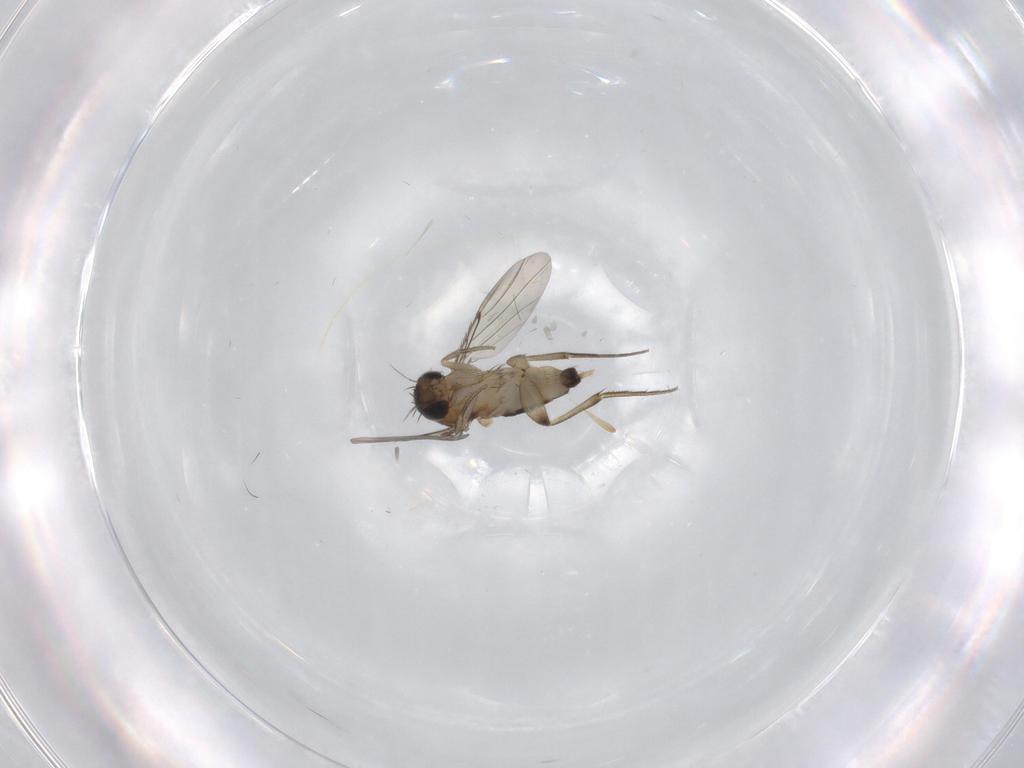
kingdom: Animalia
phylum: Arthropoda
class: Insecta
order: Diptera
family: Phoridae
